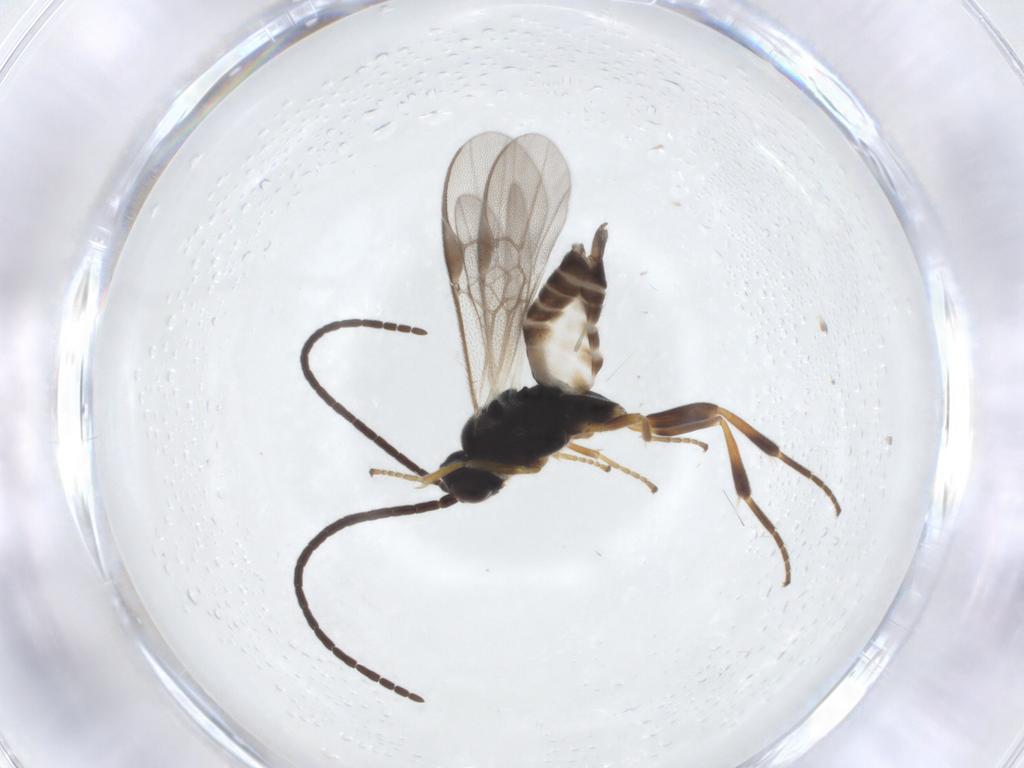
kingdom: Animalia
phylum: Arthropoda
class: Insecta
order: Hymenoptera
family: Braconidae
